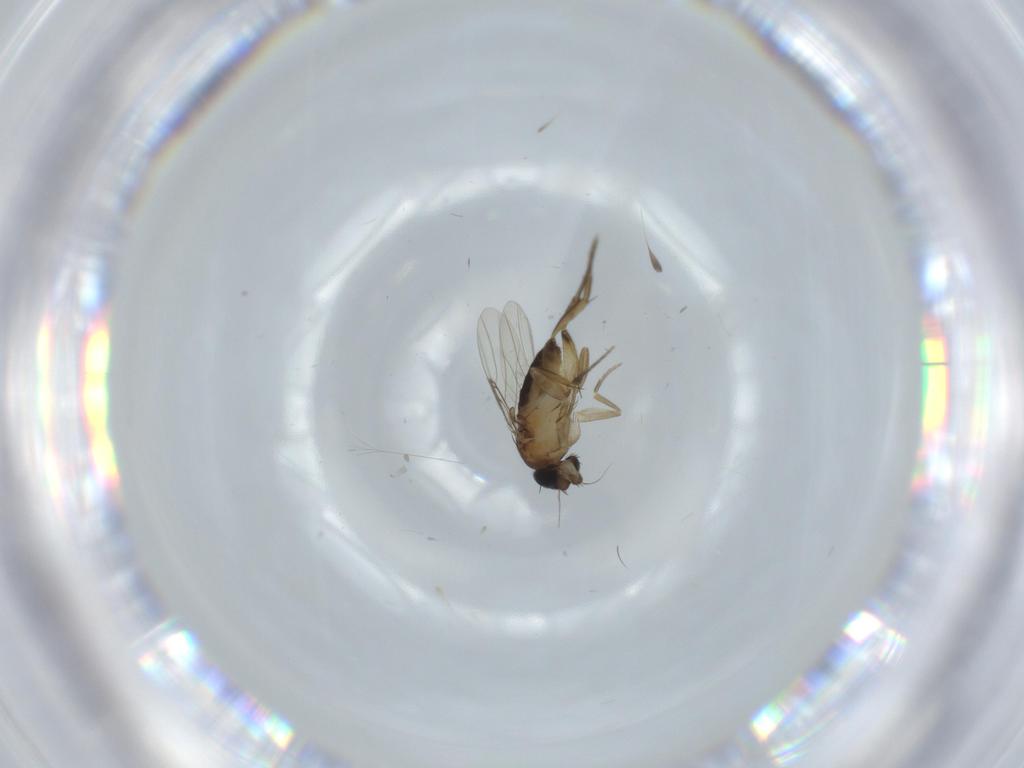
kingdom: Animalia
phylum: Arthropoda
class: Insecta
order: Diptera
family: Phoridae
